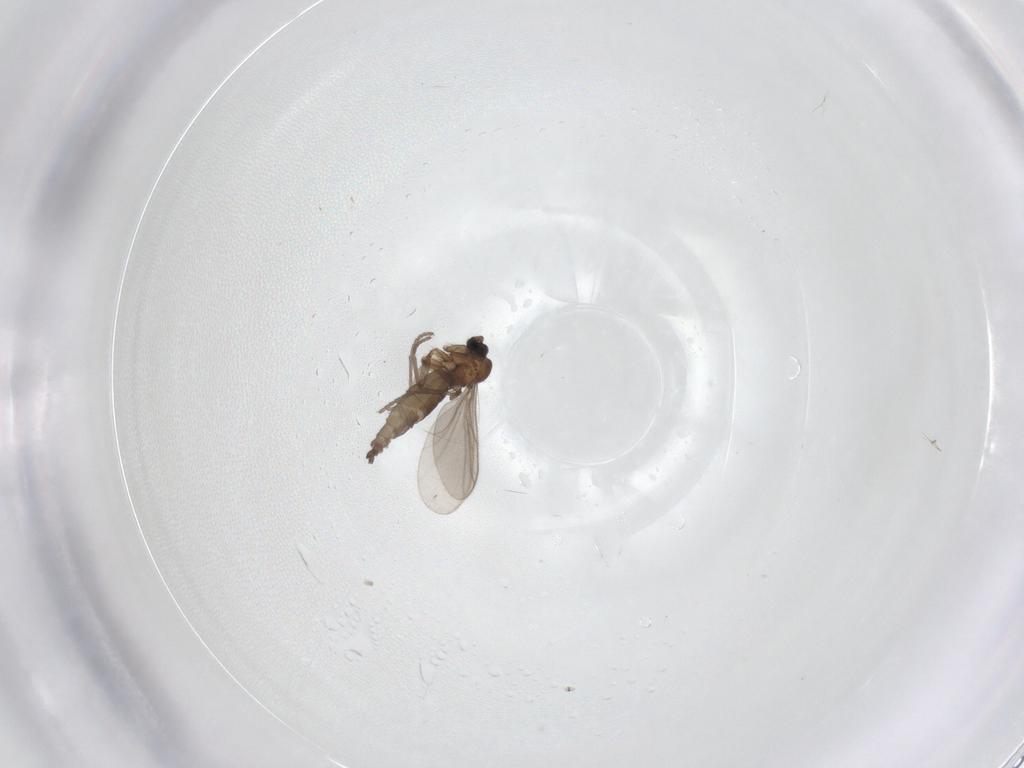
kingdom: Animalia
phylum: Arthropoda
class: Insecta
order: Diptera
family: Sciaridae
